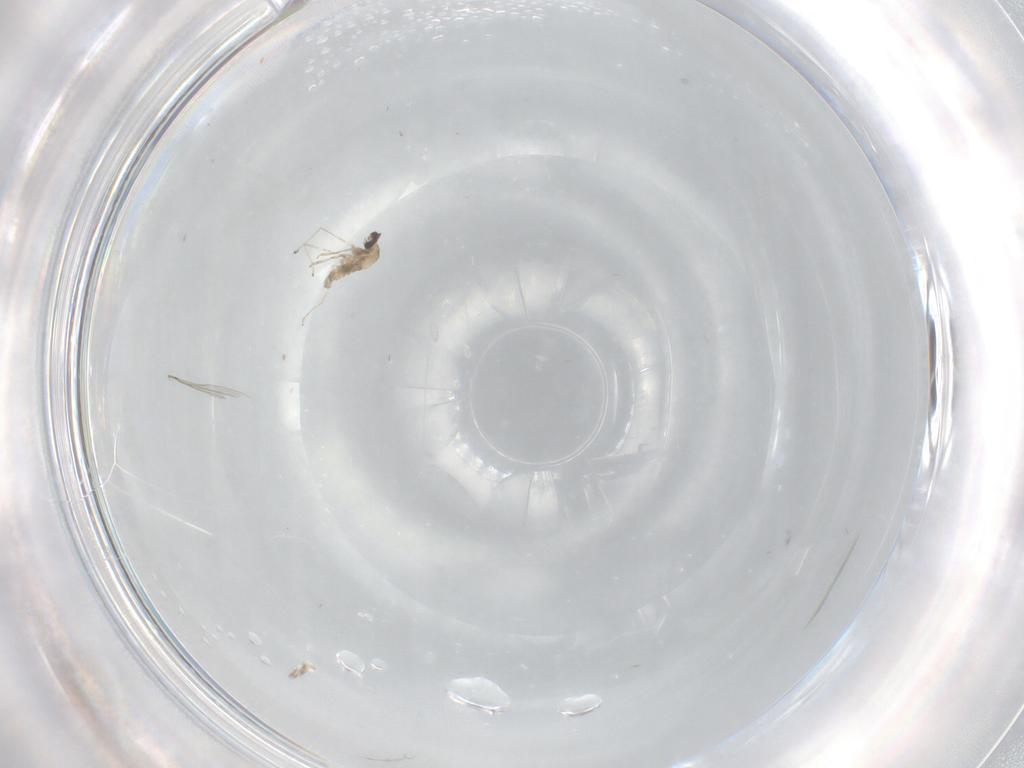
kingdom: Animalia
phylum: Arthropoda
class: Insecta
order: Diptera
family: Cecidomyiidae
